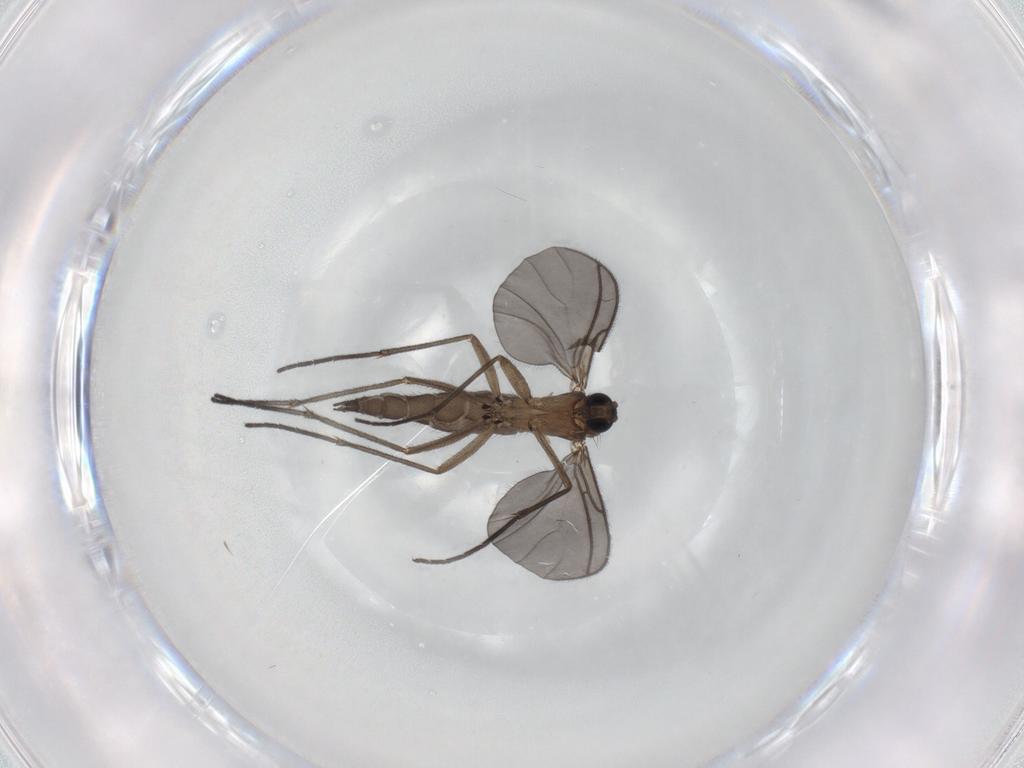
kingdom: Animalia
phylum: Arthropoda
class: Insecta
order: Diptera
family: Sciaridae
